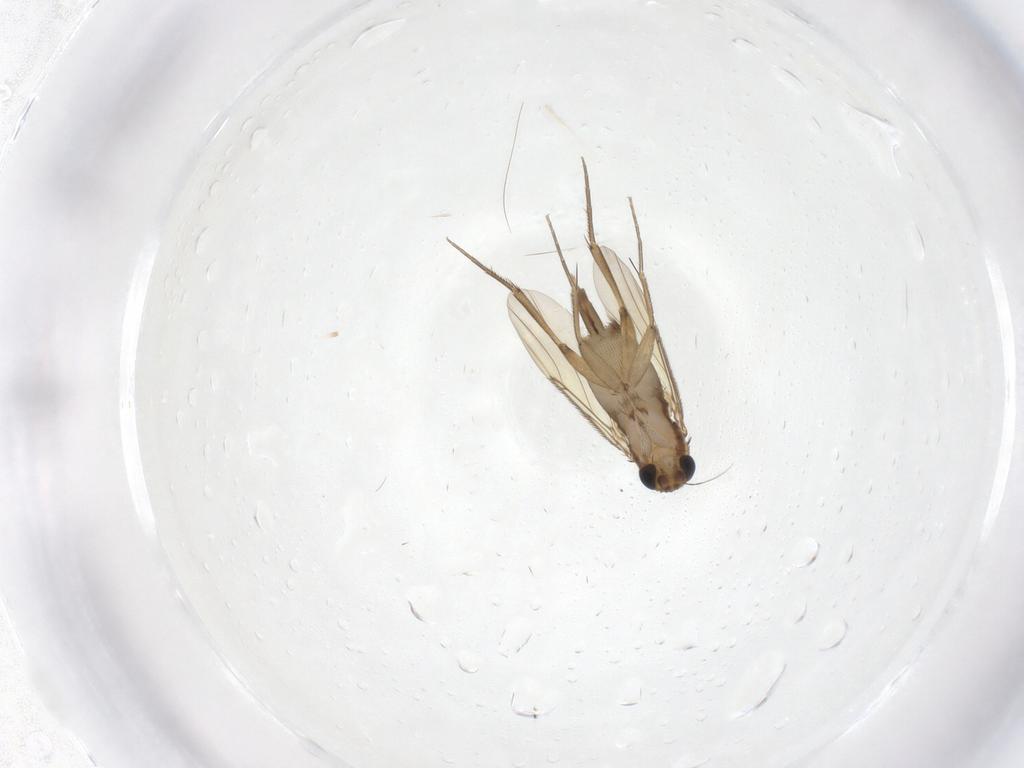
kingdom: Animalia
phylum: Arthropoda
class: Insecta
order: Diptera
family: Phoridae
